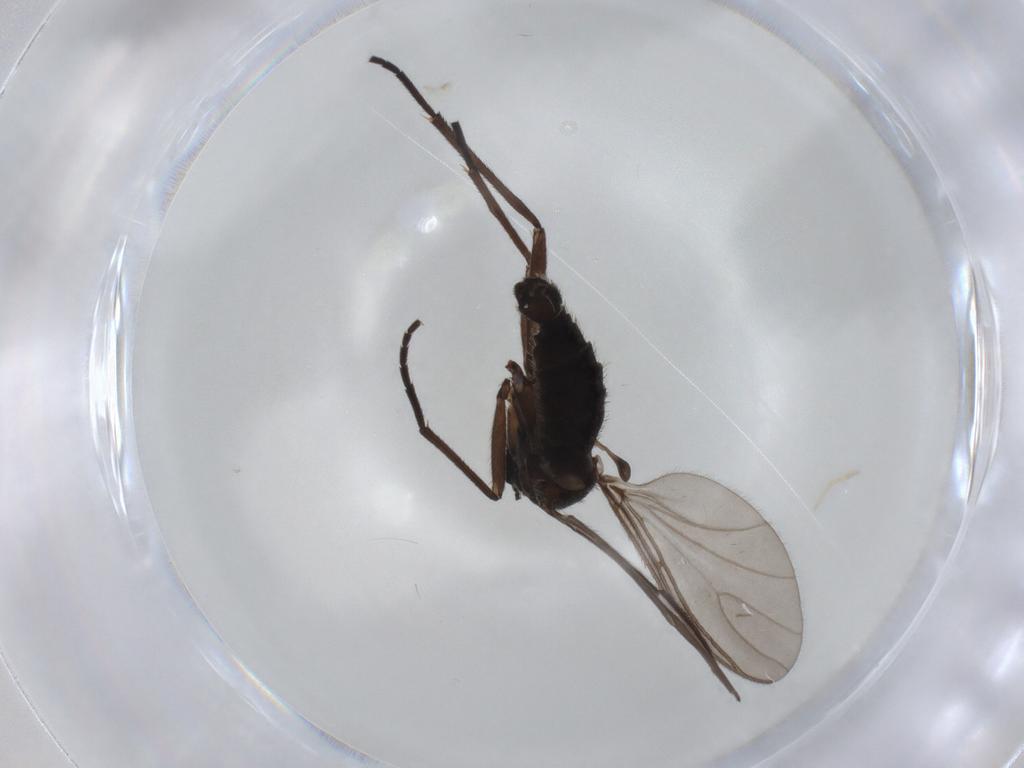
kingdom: Animalia
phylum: Arthropoda
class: Insecta
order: Diptera
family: Sciaridae
